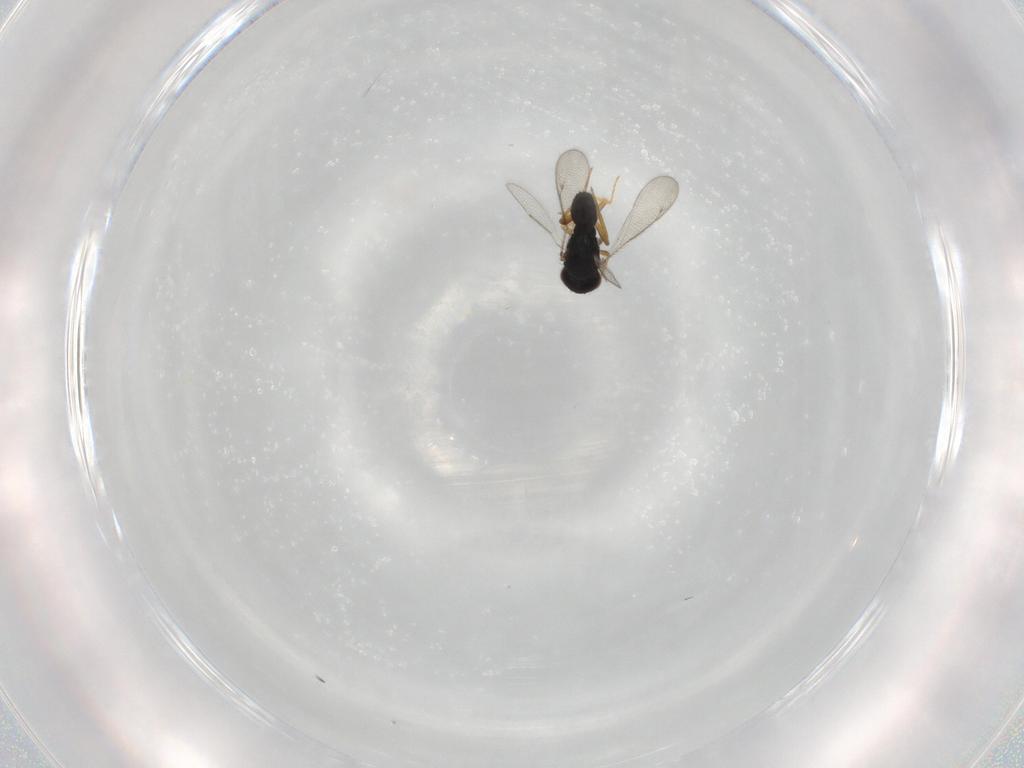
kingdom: Animalia
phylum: Arthropoda
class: Insecta
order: Hymenoptera
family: Eulophidae
